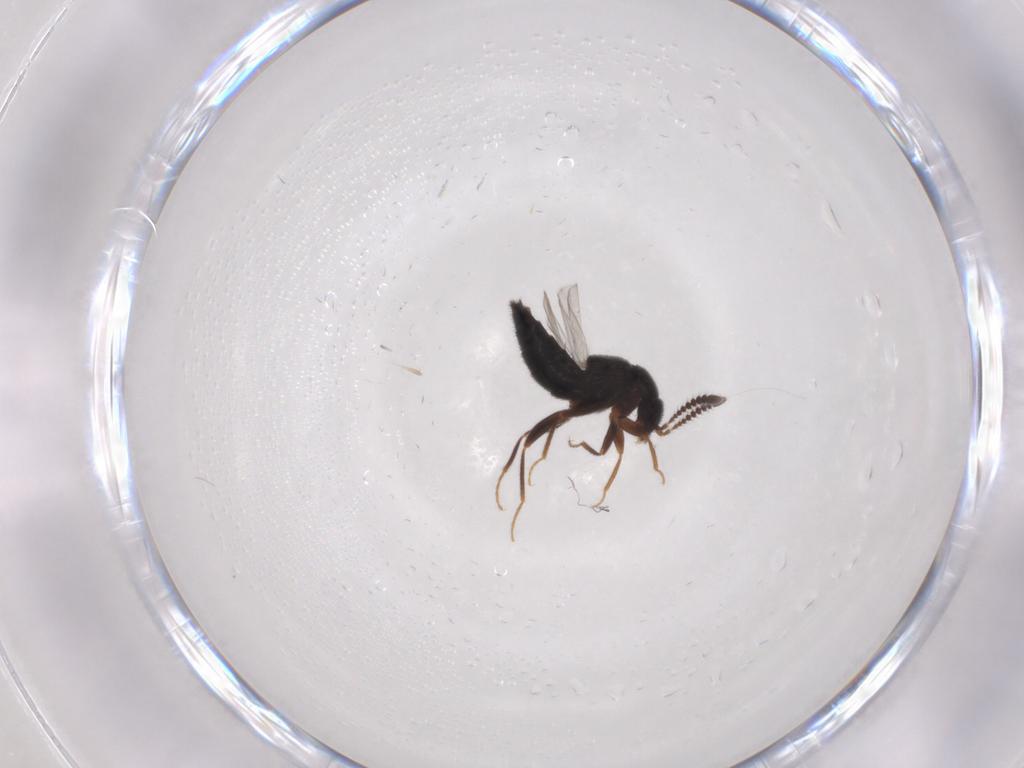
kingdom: Animalia
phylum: Arthropoda
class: Insecta
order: Coleoptera
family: Staphylinidae
